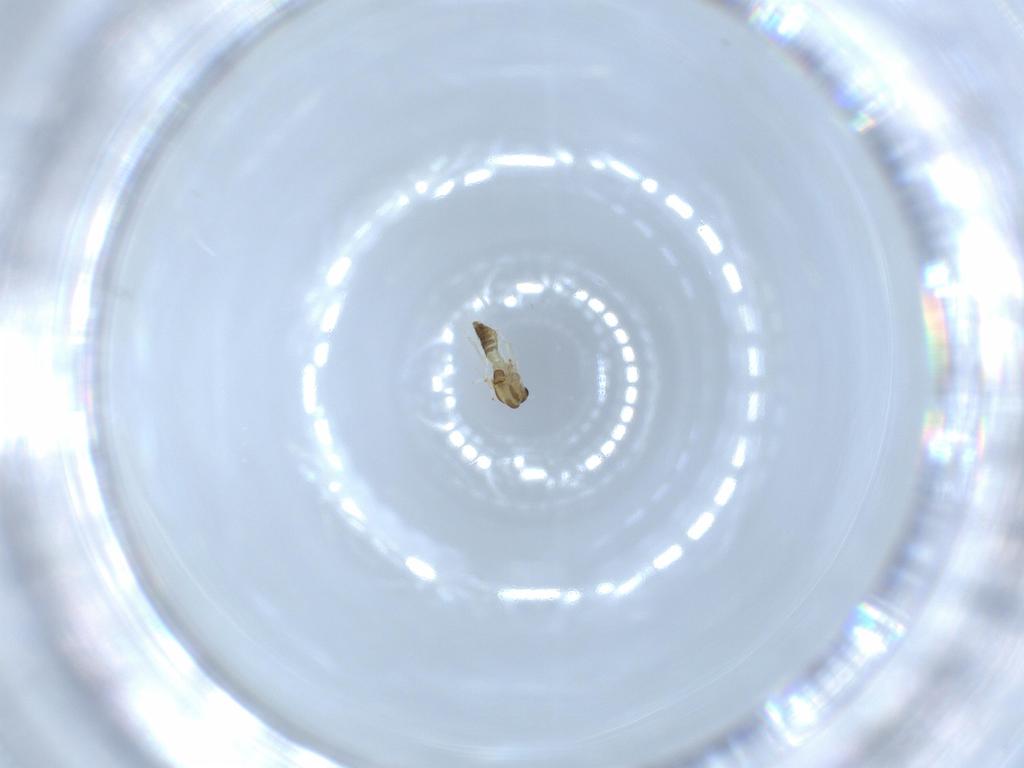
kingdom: Animalia
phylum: Arthropoda
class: Insecta
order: Diptera
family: Chironomidae
